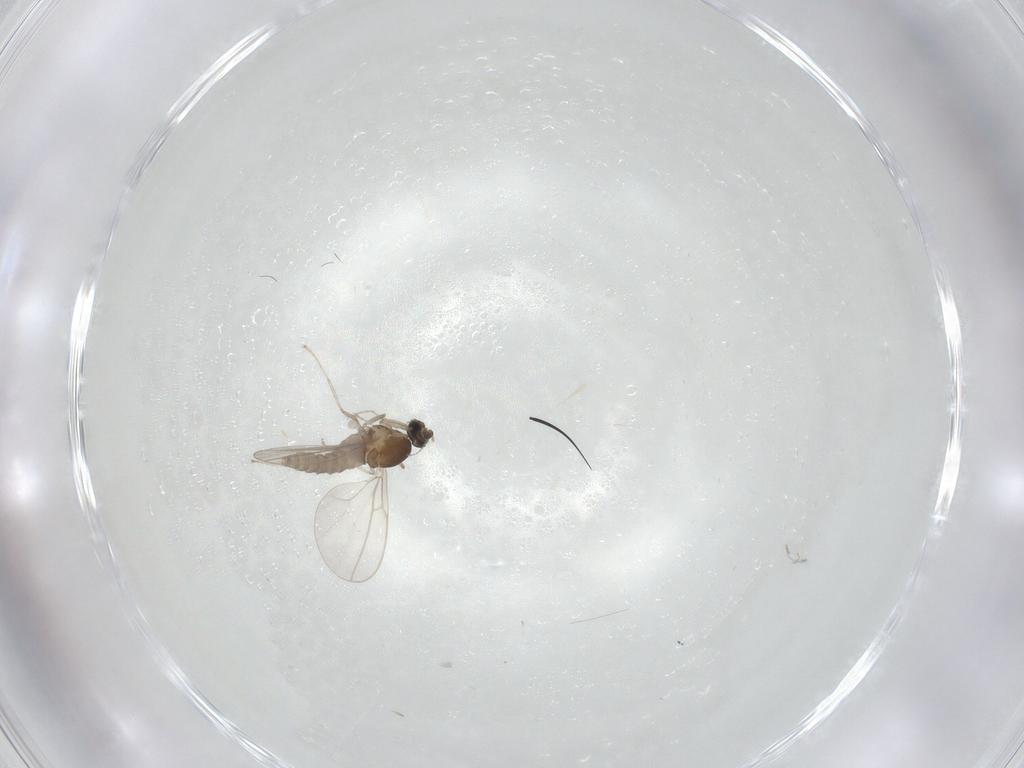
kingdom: Animalia
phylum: Arthropoda
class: Insecta
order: Diptera
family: Cecidomyiidae
